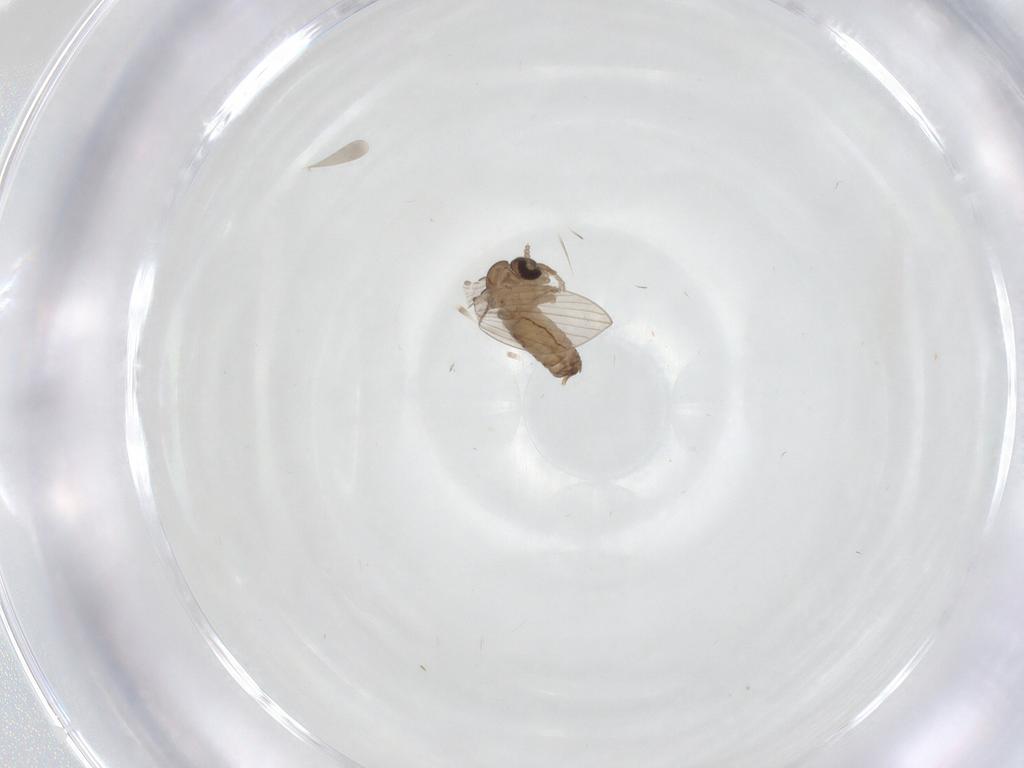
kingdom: Animalia
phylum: Arthropoda
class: Insecta
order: Diptera
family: Psychodidae
